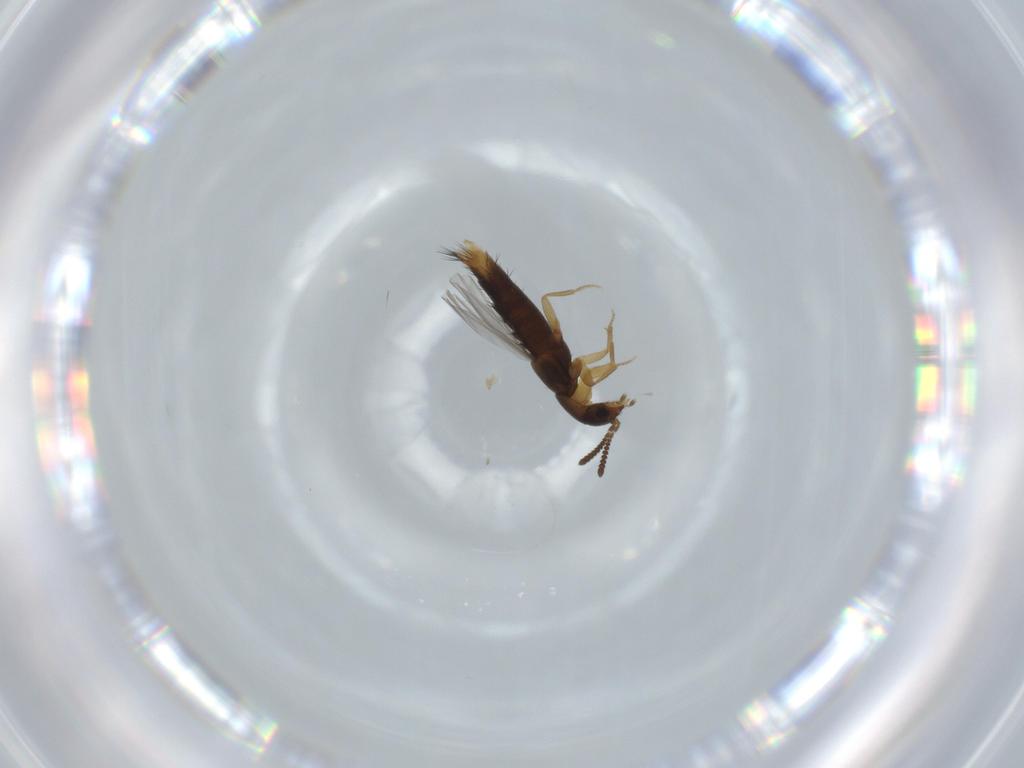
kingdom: Animalia
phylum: Arthropoda
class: Insecta
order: Coleoptera
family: Staphylinidae
